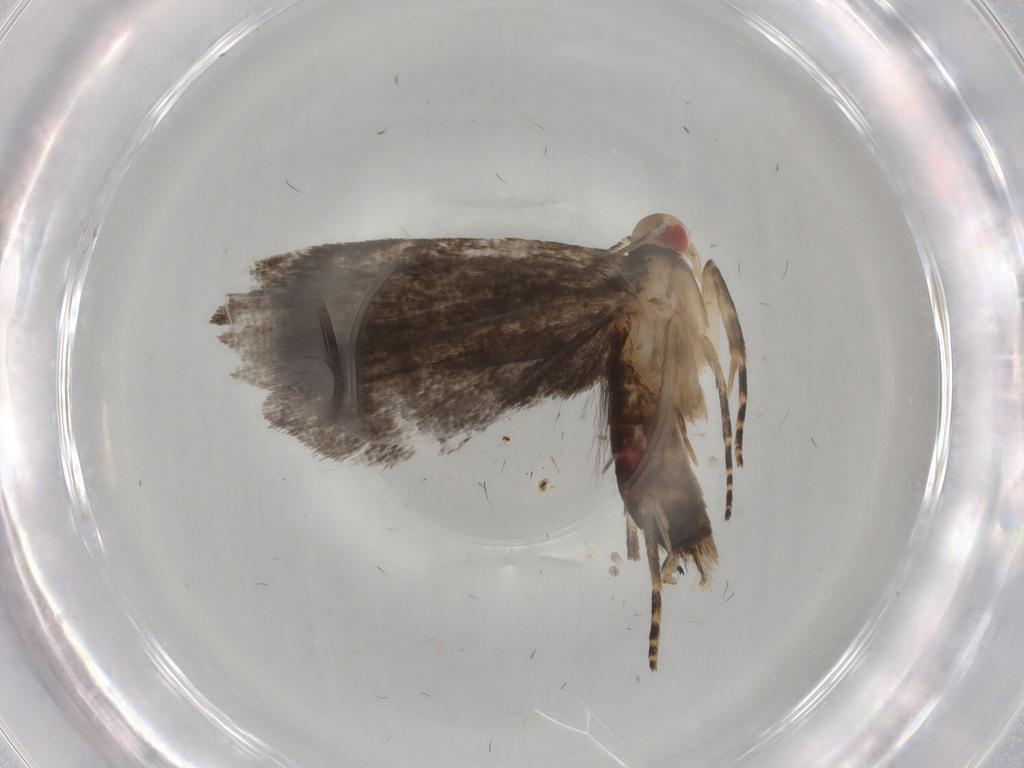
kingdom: Animalia
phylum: Arthropoda
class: Insecta
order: Lepidoptera
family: Gelechiidae
